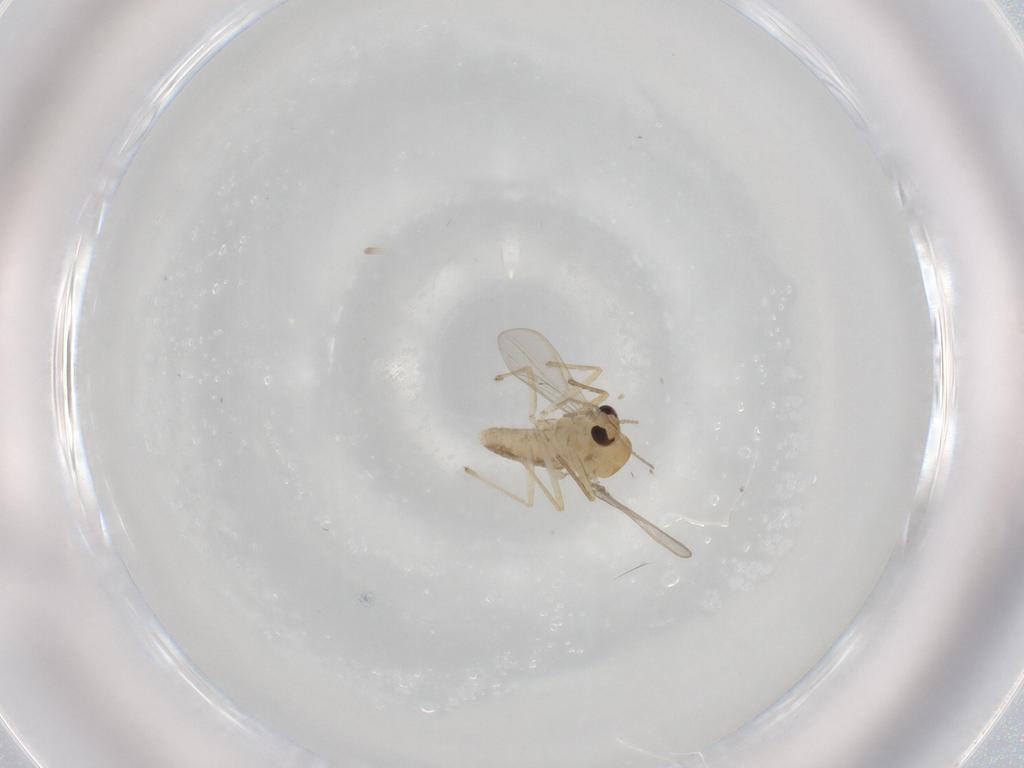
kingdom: Animalia
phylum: Arthropoda
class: Insecta
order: Diptera
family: Chironomidae
